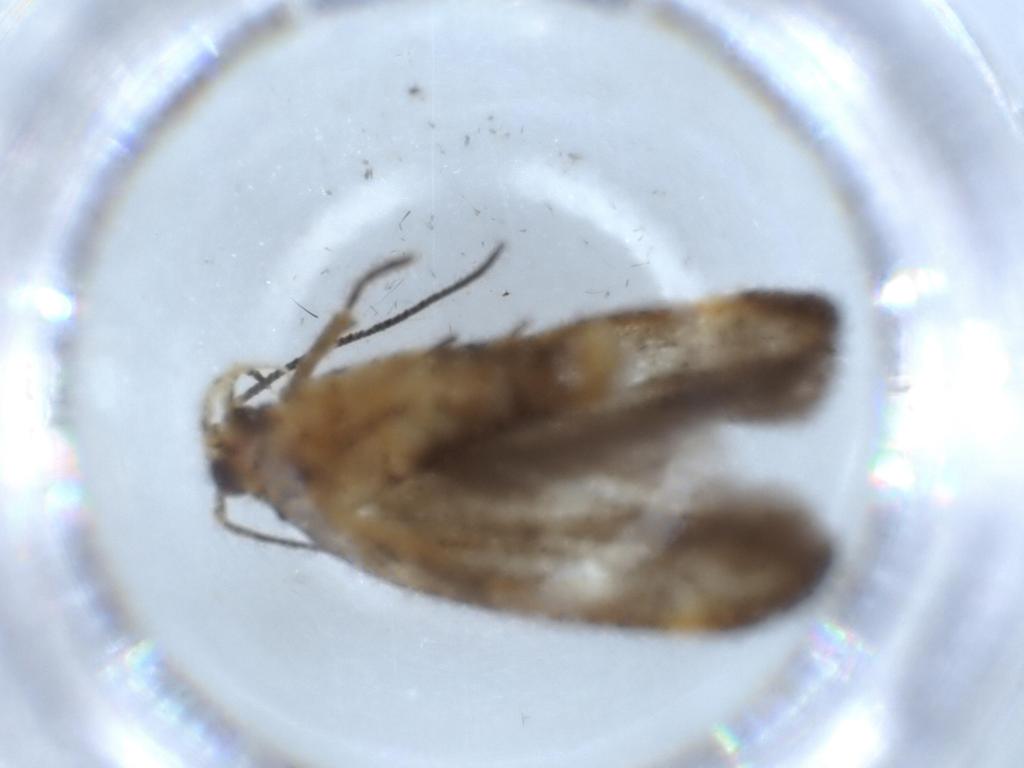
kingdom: Animalia
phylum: Arthropoda
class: Insecta
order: Lepidoptera
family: Gelechiidae
